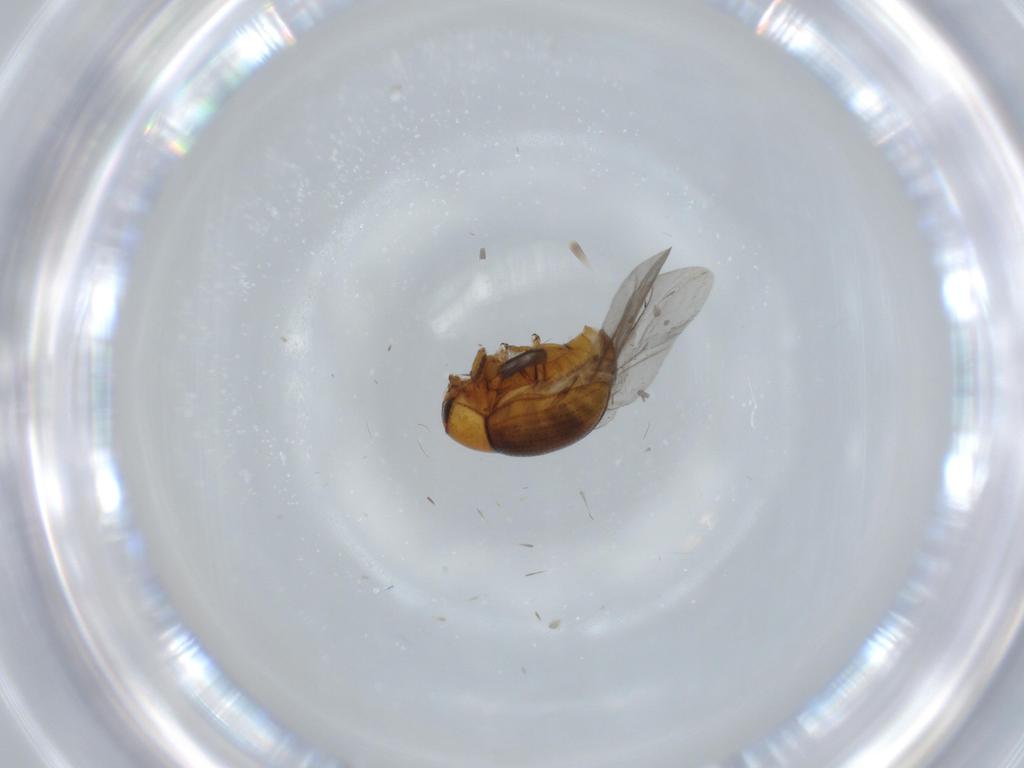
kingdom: Animalia
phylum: Arthropoda
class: Insecta
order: Coleoptera
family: Chrysomelidae
